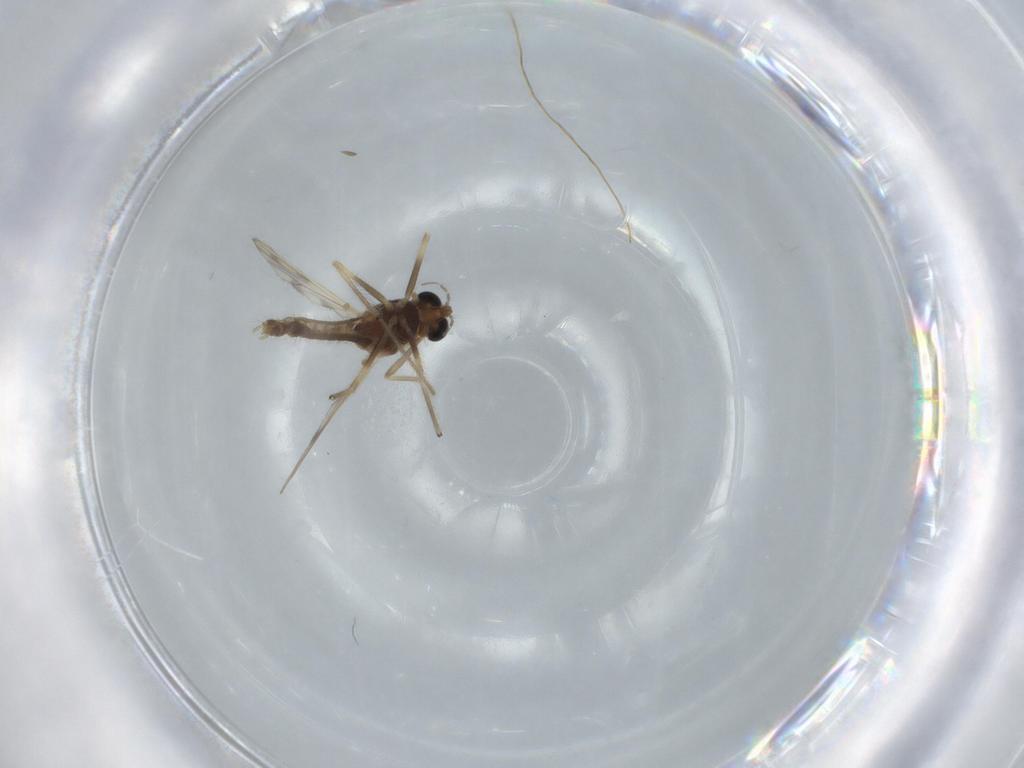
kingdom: Animalia
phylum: Arthropoda
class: Insecta
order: Diptera
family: Chironomidae
